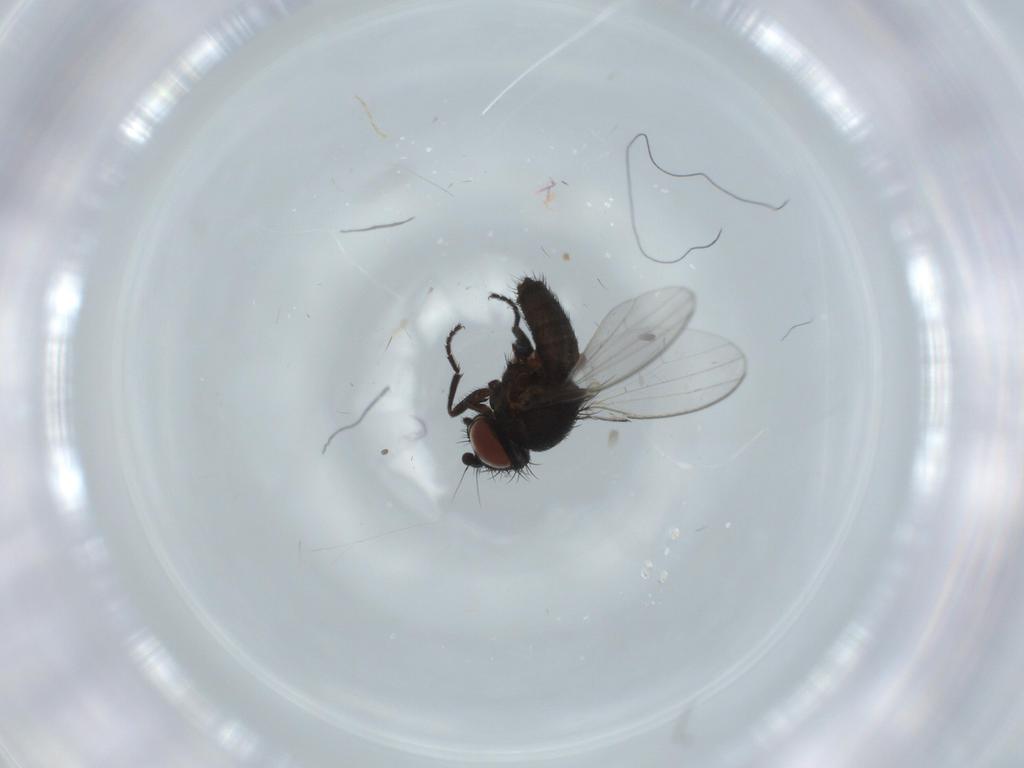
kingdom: Animalia
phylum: Arthropoda
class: Insecta
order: Diptera
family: Milichiidae
